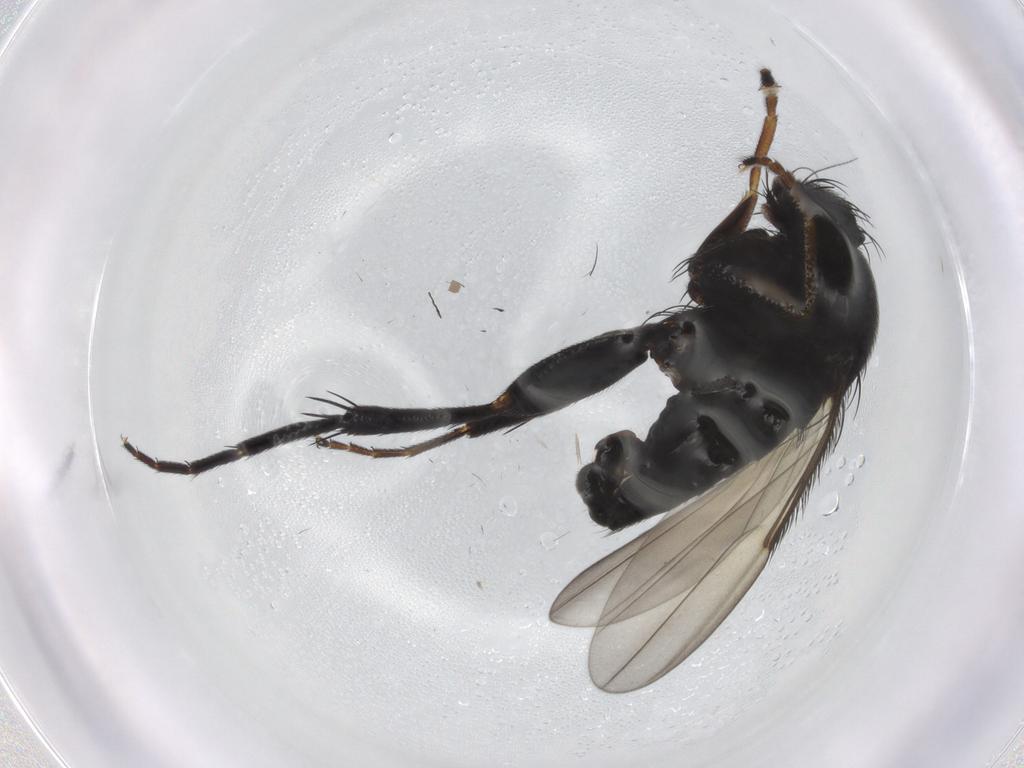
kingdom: Animalia
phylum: Arthropoda
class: Insecta
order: Diptera
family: Cecidomyiidae
